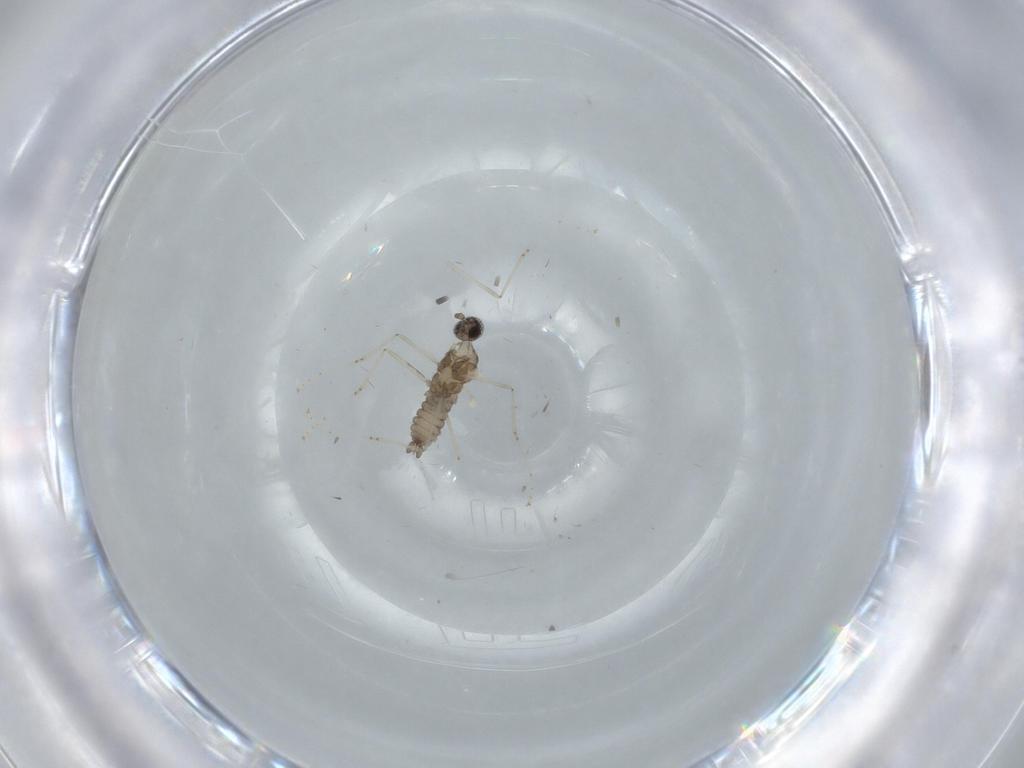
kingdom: Animalia
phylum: Arthropoda
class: Insecta
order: Diptera
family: Cecidomyiidae
